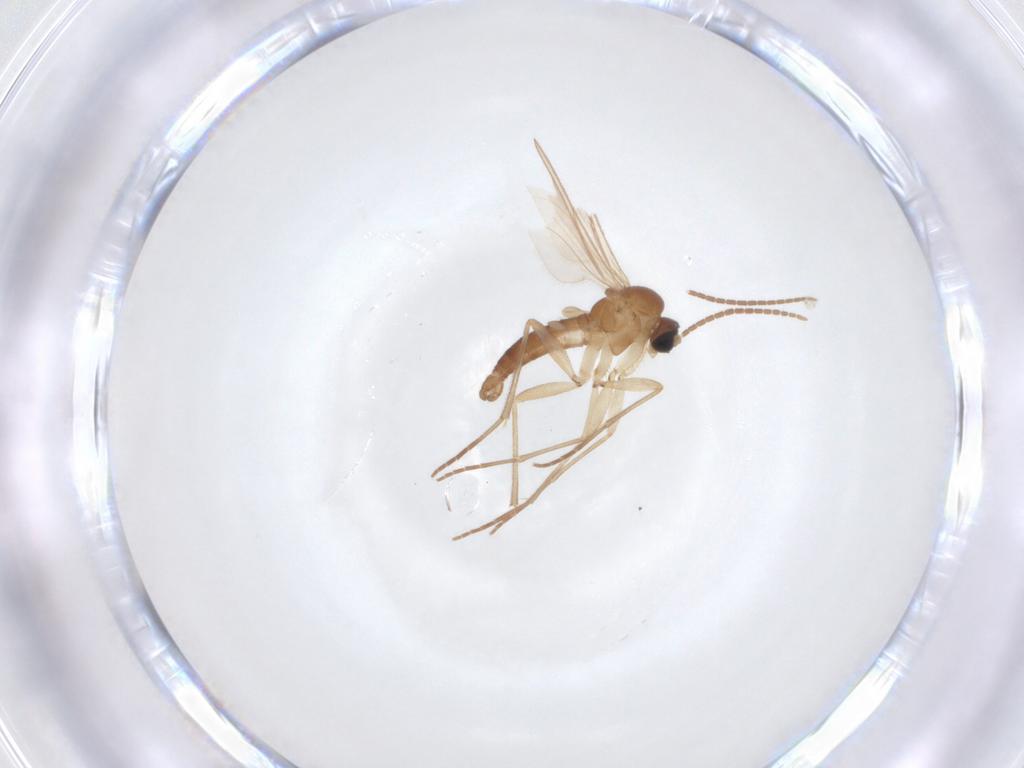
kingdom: Animalia
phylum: Arthropoda
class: Insecta
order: Diptera
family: Sciaridae
